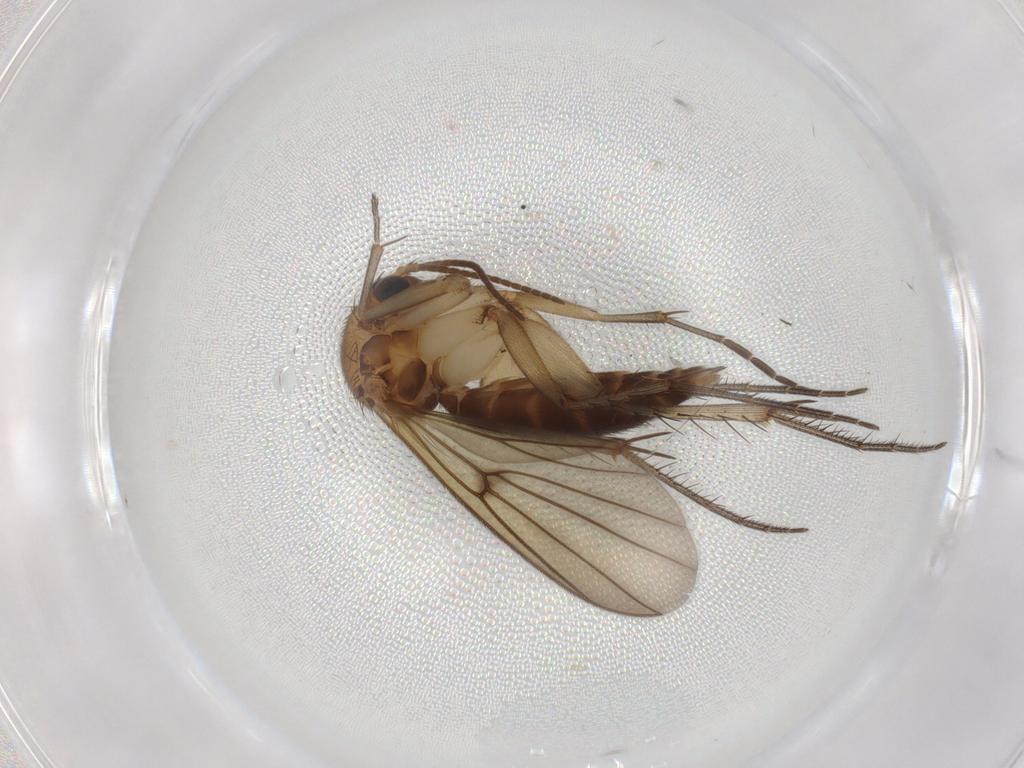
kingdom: Animalia
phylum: Arthropoda
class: Insecta
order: Diptera
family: Chironomidae
